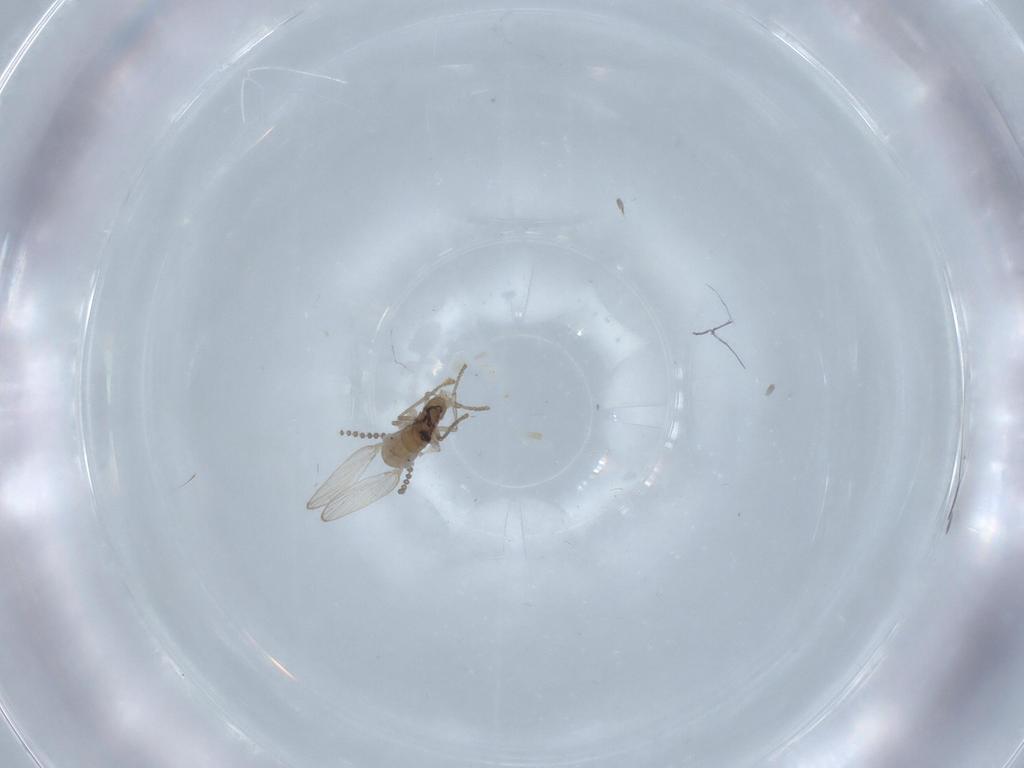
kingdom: Animalia
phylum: Arthropoda
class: Insecta
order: Diptera
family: Psychodidae
